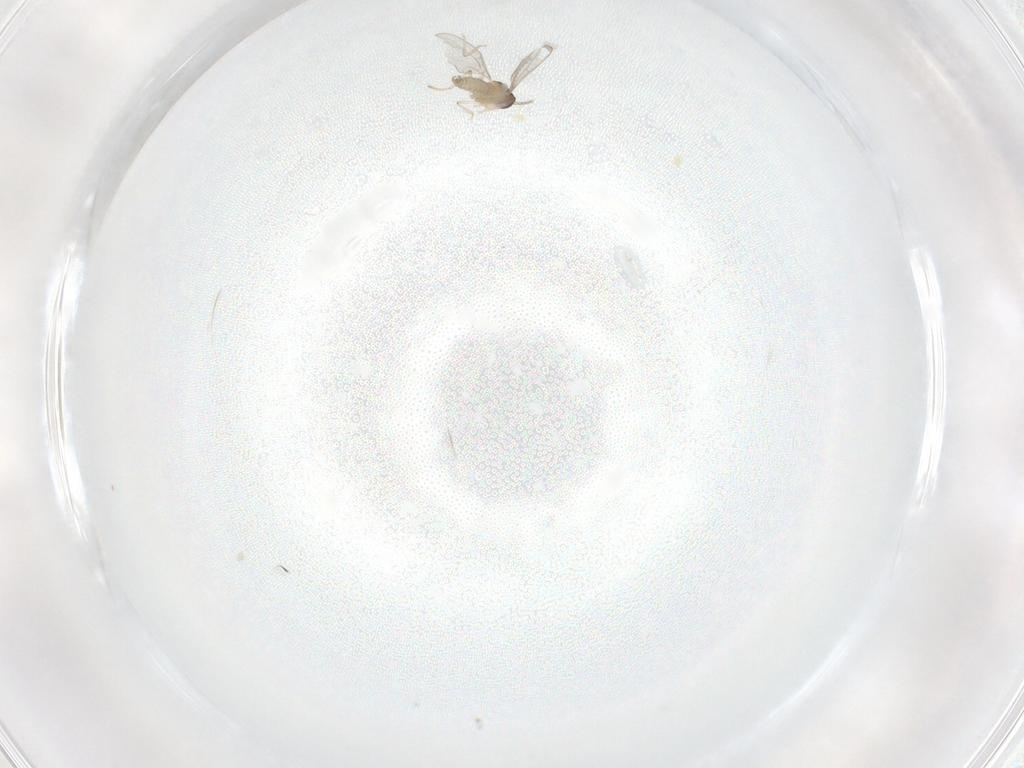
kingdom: Animalia
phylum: Arthropoda
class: Insecta
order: Diptera
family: Cecidomyiidae
